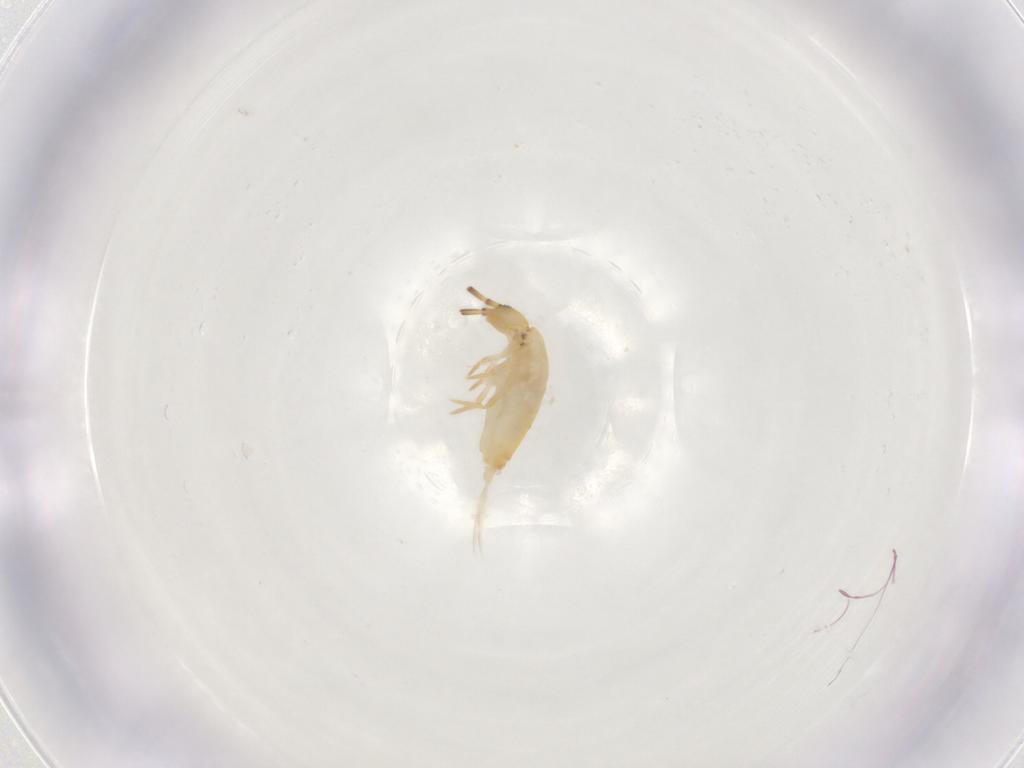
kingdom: Animalia
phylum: Arthropoda
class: Collembola
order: Entomobryomorpha
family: Entomobryidae
